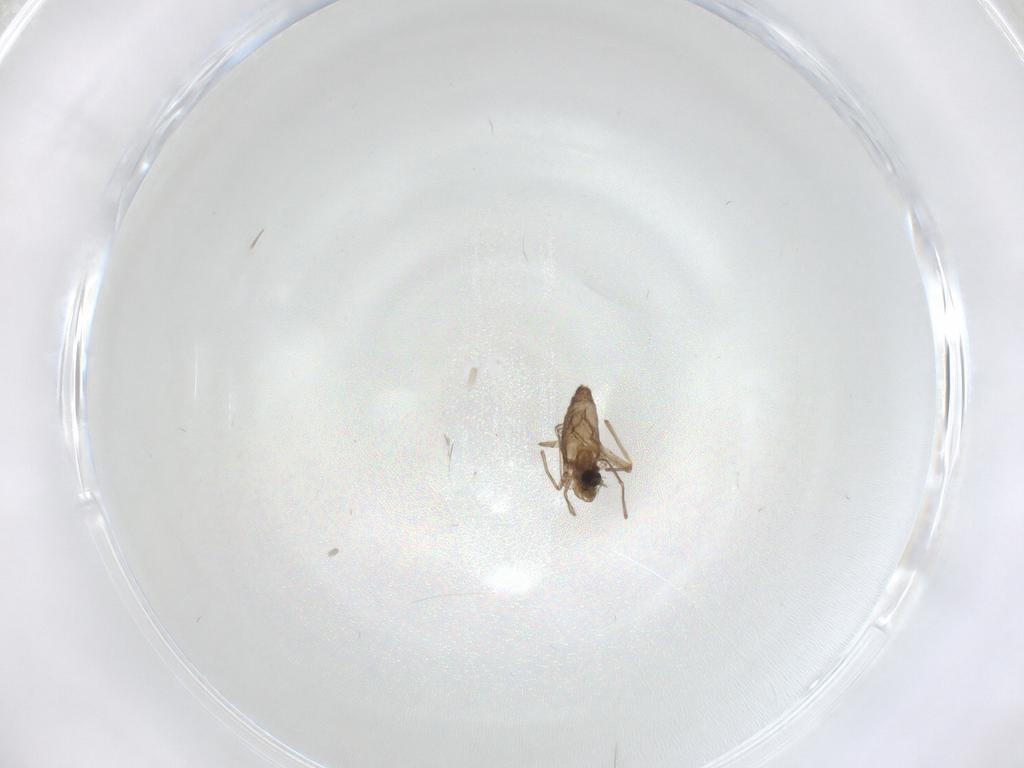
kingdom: Animalia
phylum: Arthropoda
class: Insecta
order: Diptera
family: Chironomidae
